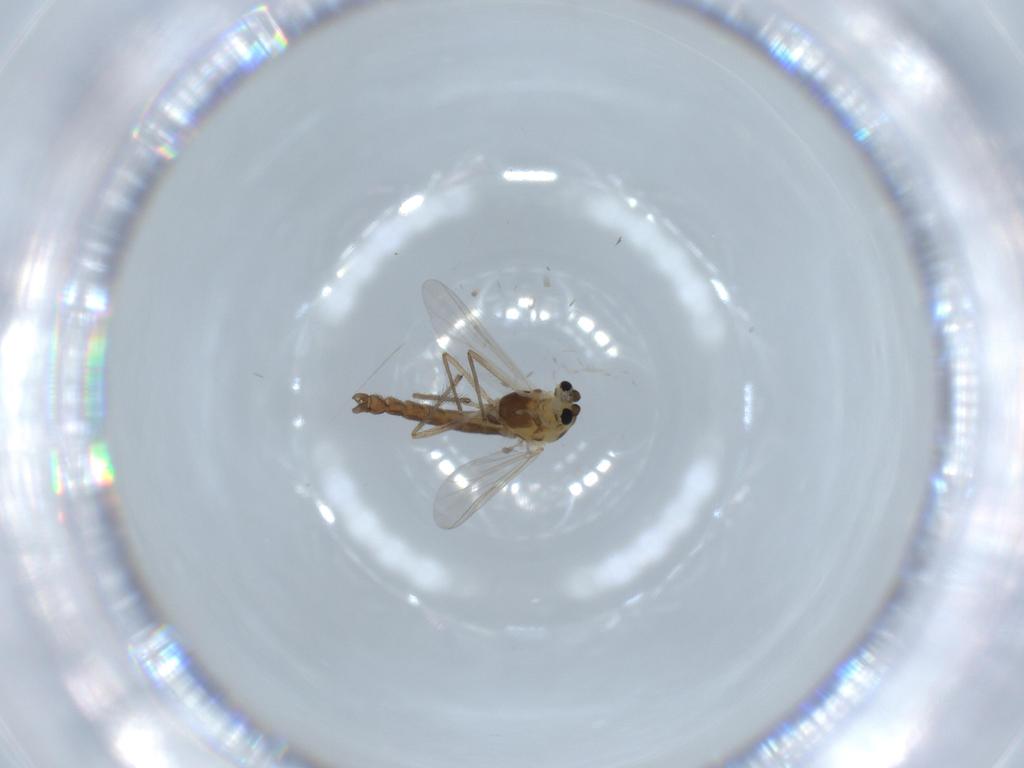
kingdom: Animalia
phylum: Arthropoda
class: Insecta
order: Diptera
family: Chironomidae
